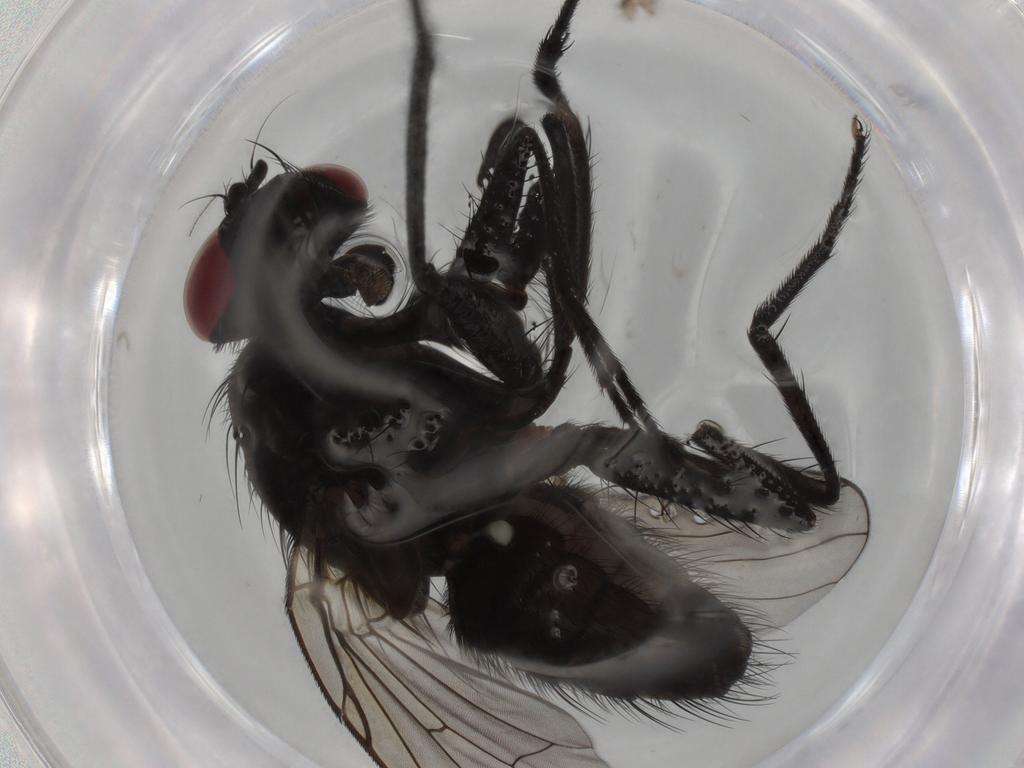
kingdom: Animalia
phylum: Arthropoda
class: Insecta
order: Diptera
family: Muscidae
